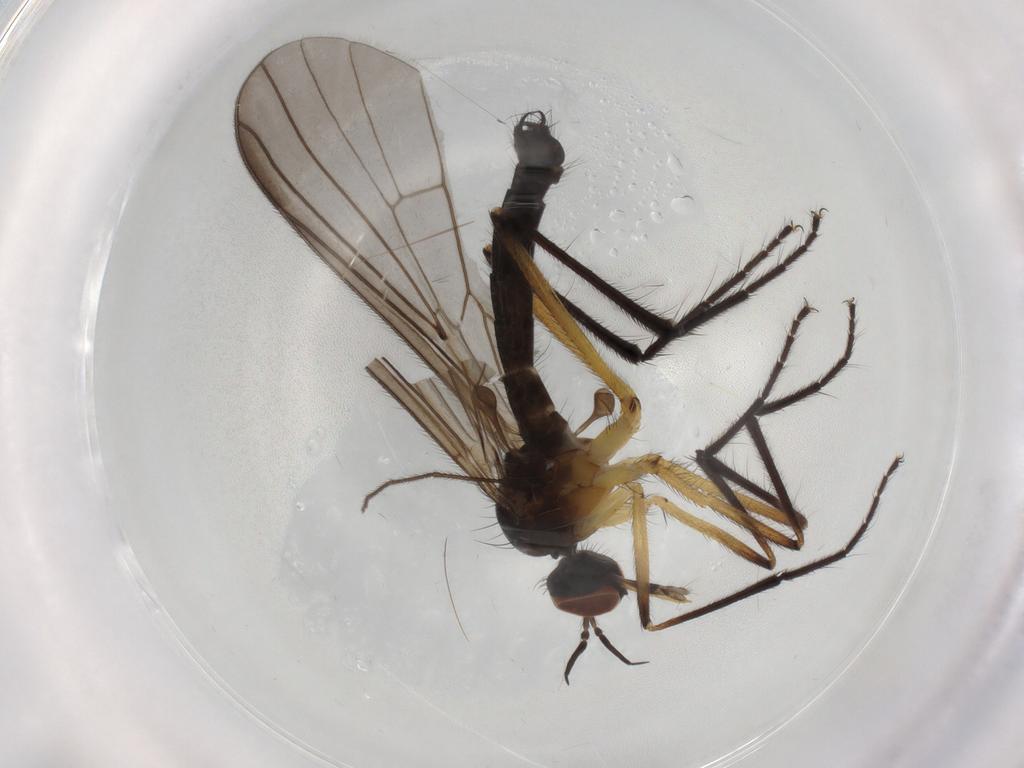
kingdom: Animalia
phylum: Arthropoda
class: Insecta
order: Diptera
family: Empididae
